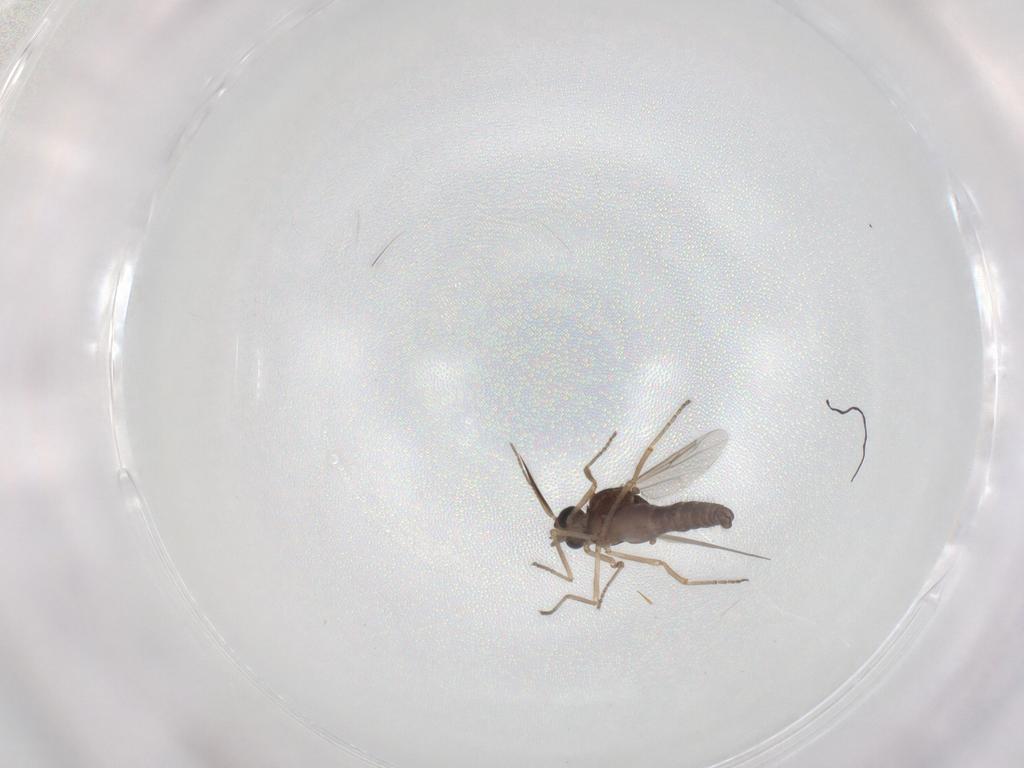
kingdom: Animalia
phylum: Arthropoda
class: Insecta
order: Diptera
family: Ceratopogonidae
